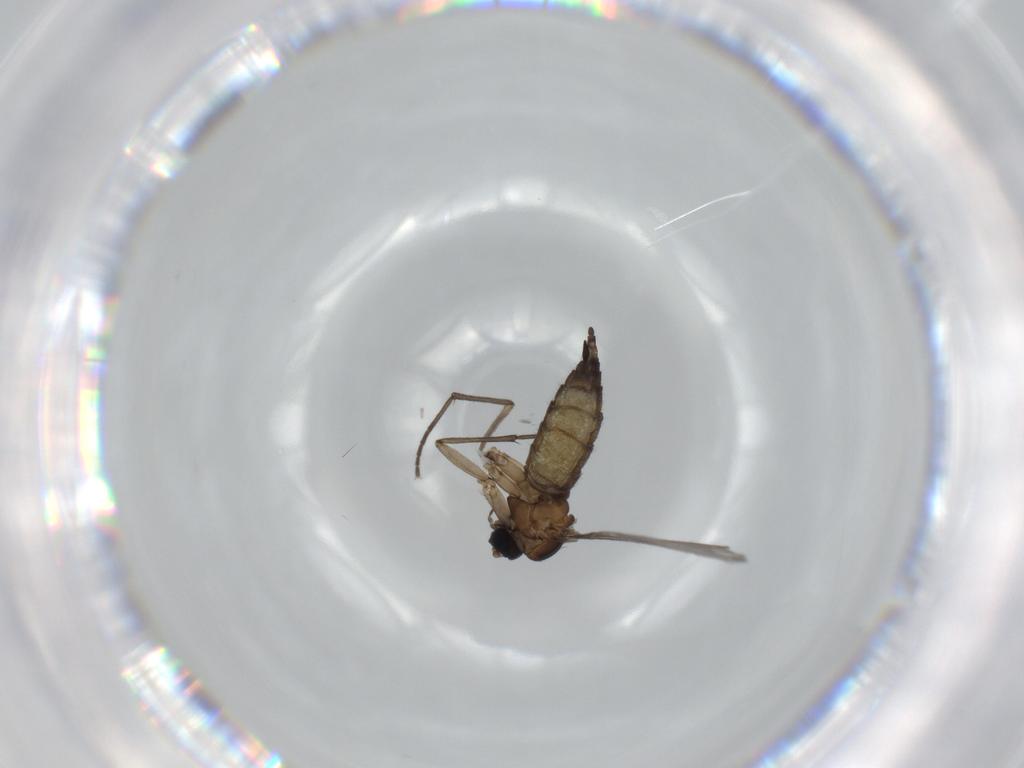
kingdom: Animalia
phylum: Arthropoda
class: Insecta
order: Diptera
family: Sciaridae
